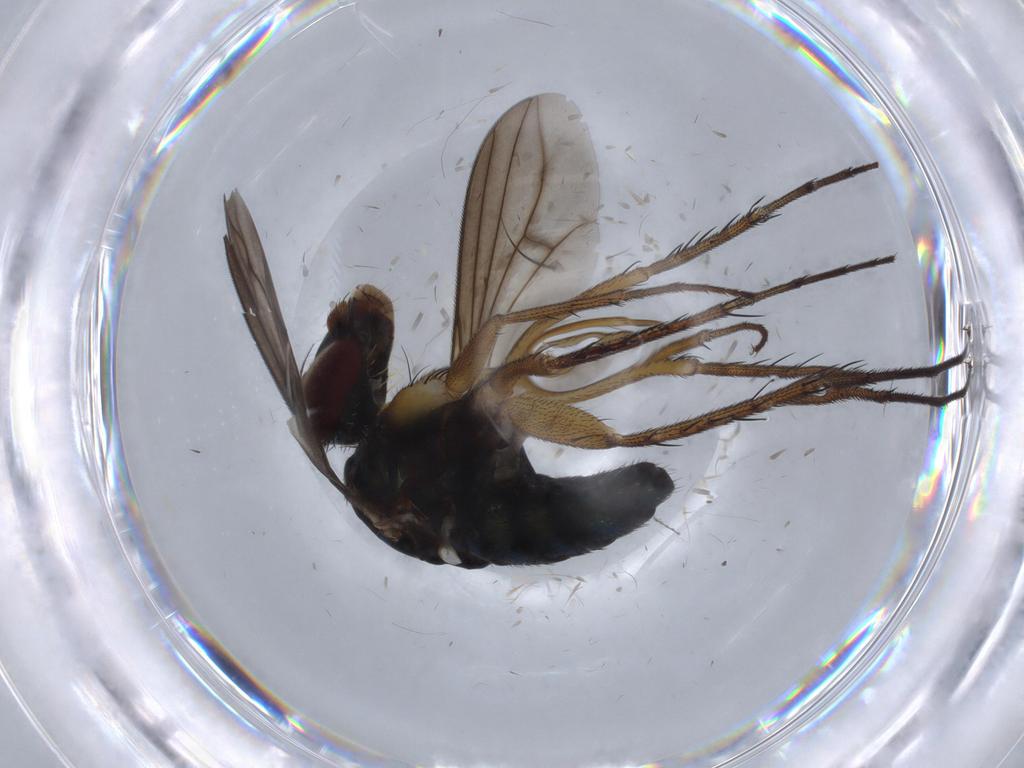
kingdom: Animalia
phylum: Arthropoda
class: Insecta
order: Diptera
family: Dolichopodidae
